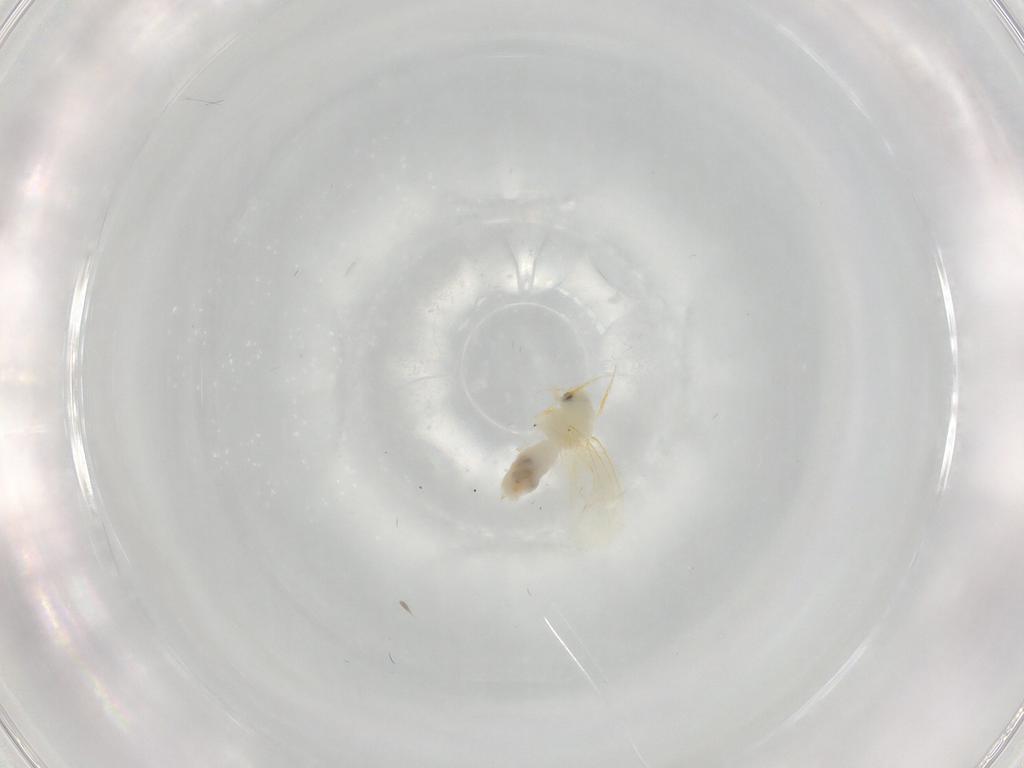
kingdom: Animalia
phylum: Arthropoda
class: Insecta
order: Hemiptera
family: Aleyrodidae
